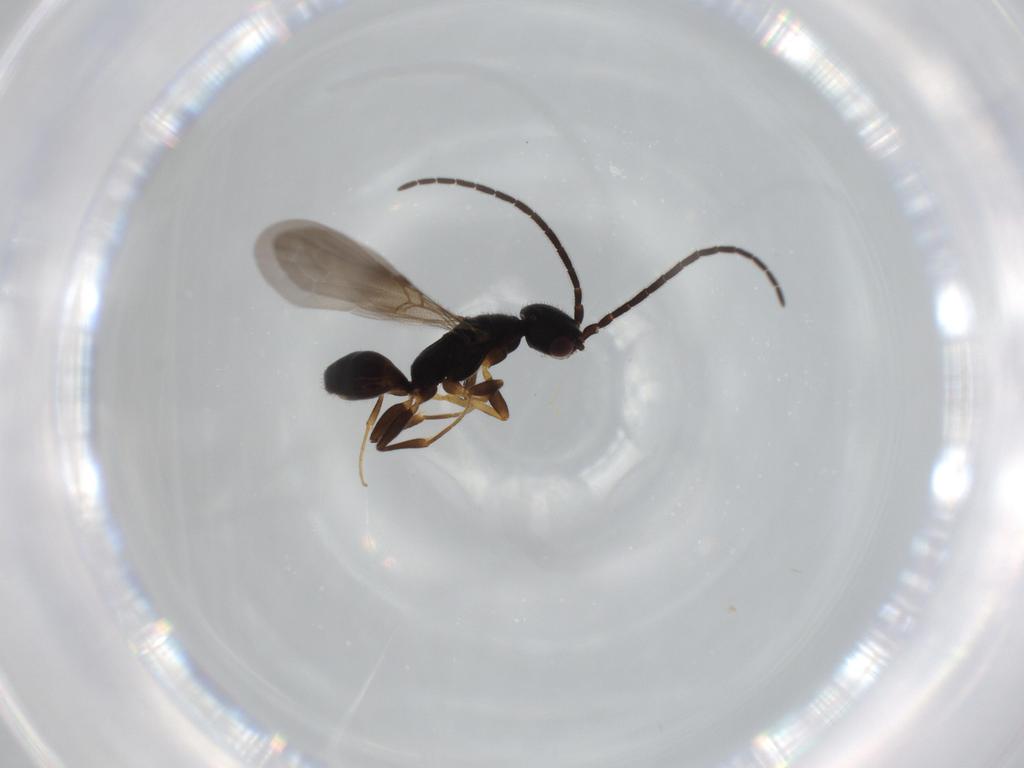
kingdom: Animalia
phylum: Arthropoda
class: Insecta
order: Hymenoptera
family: Bethylidae
